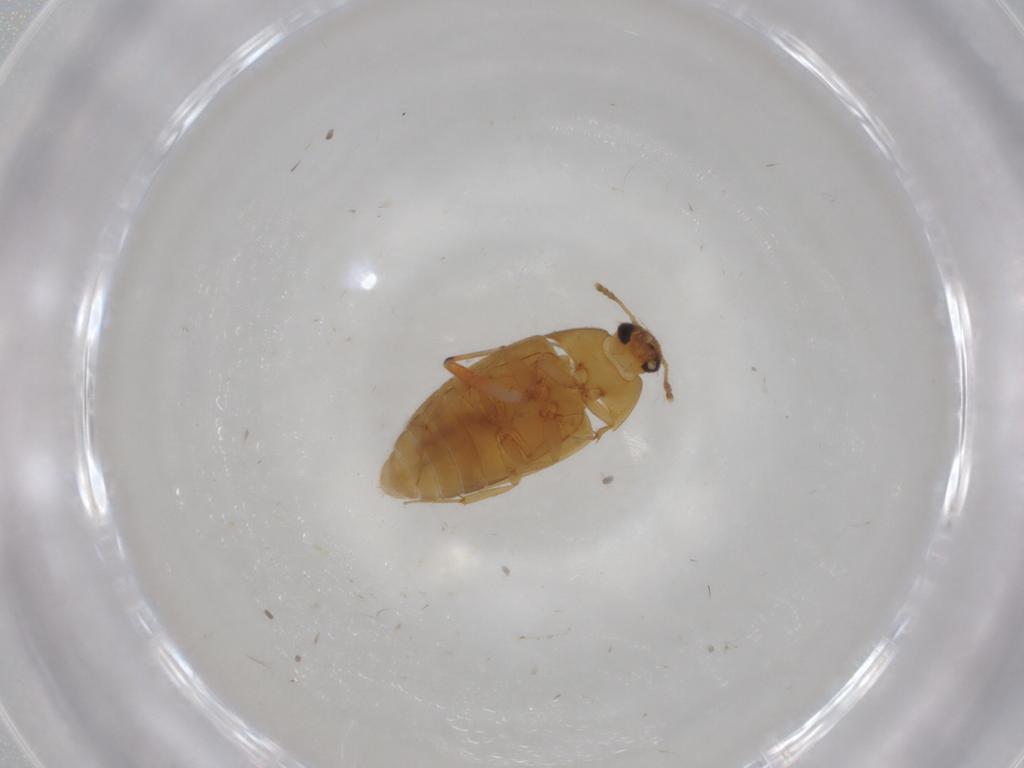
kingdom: Animalia
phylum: Arthropoda
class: Insecta
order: Coleoptera
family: Mycetophagidae
